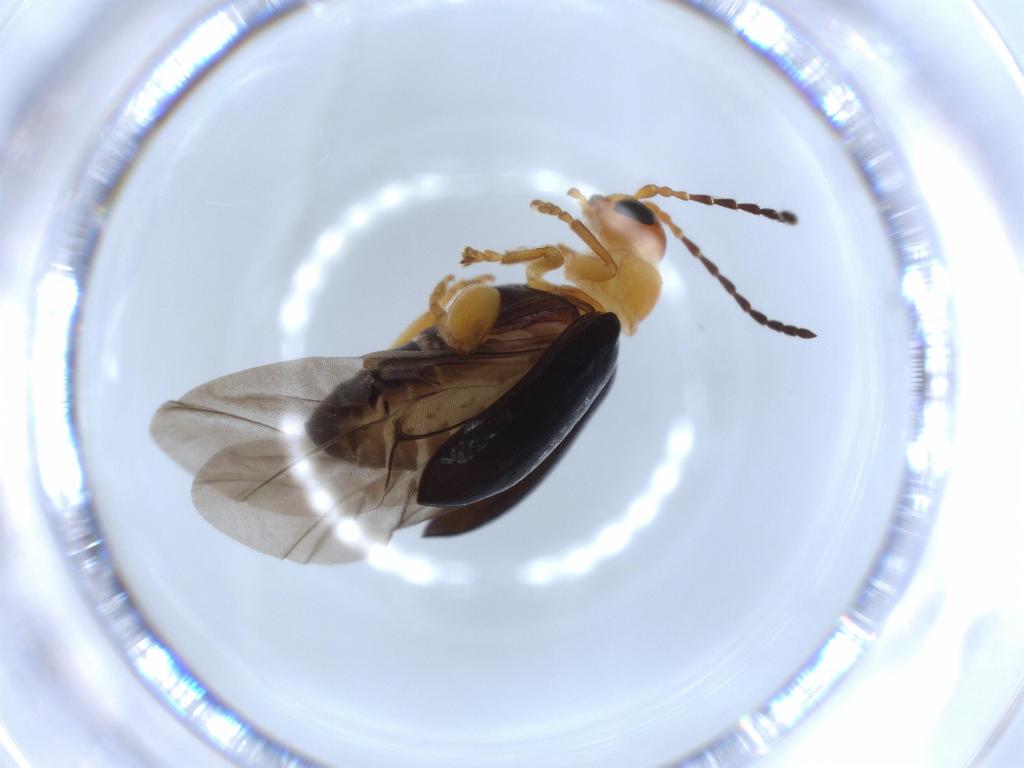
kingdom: Animalia
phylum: Arthropoda
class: Insecta
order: Coleoptera
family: Chrysomelidae
